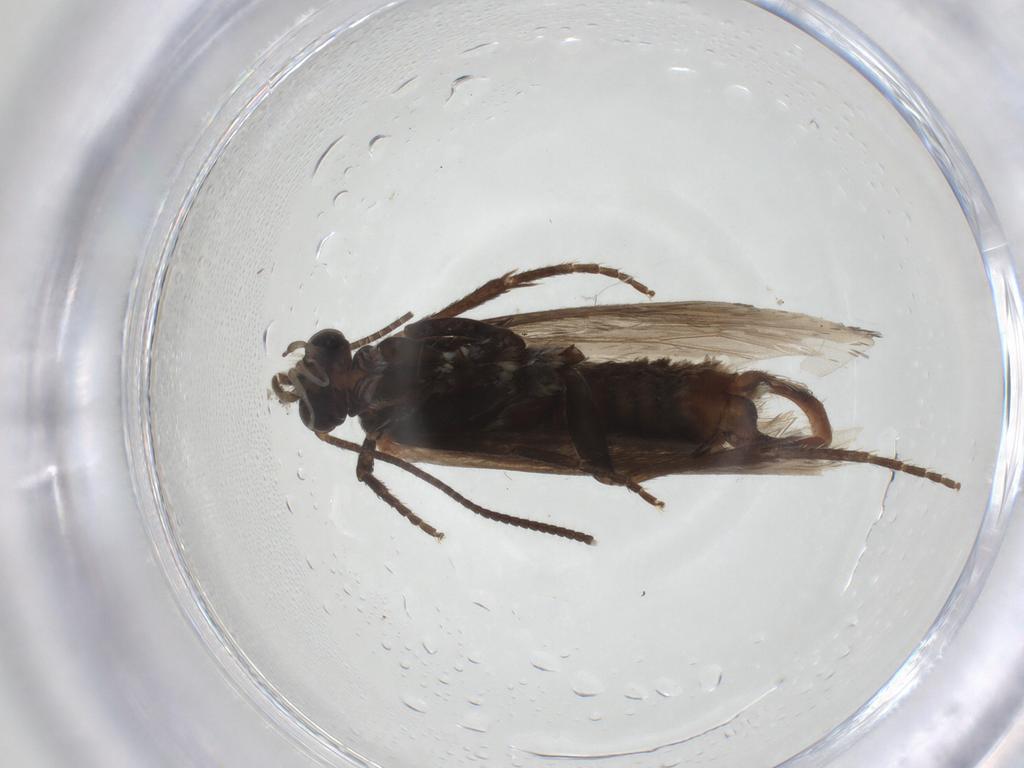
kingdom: Animalia
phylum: Arthropoda
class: Insecta
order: Lepidoptera
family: Prodoxidae
